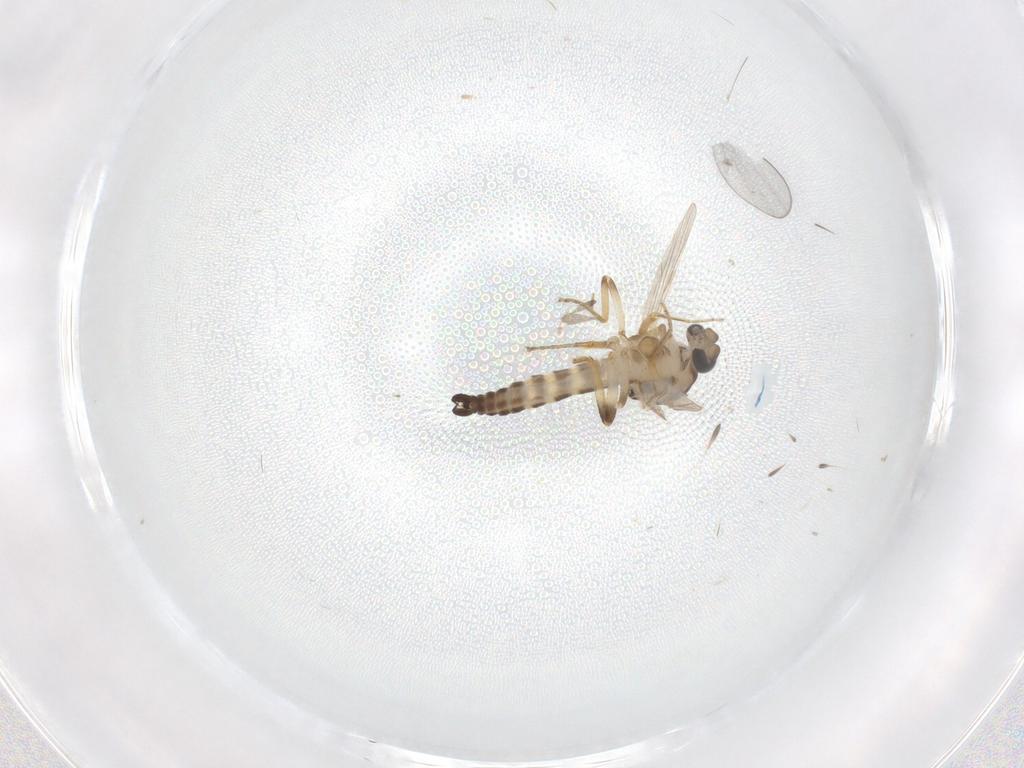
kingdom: Animalia
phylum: Arthropoda
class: Insecta
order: Diptera
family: Ceratopogonidae
